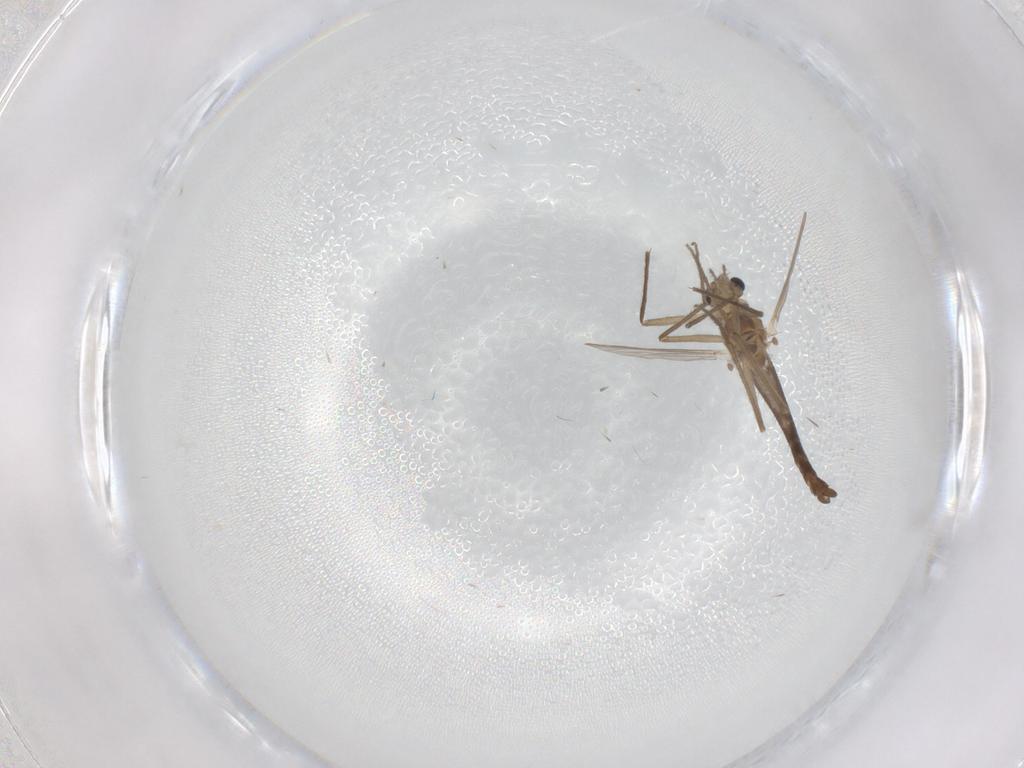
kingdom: Animalia
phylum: Arthropoda
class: Insecta
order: Diptera
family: Chironomidae
